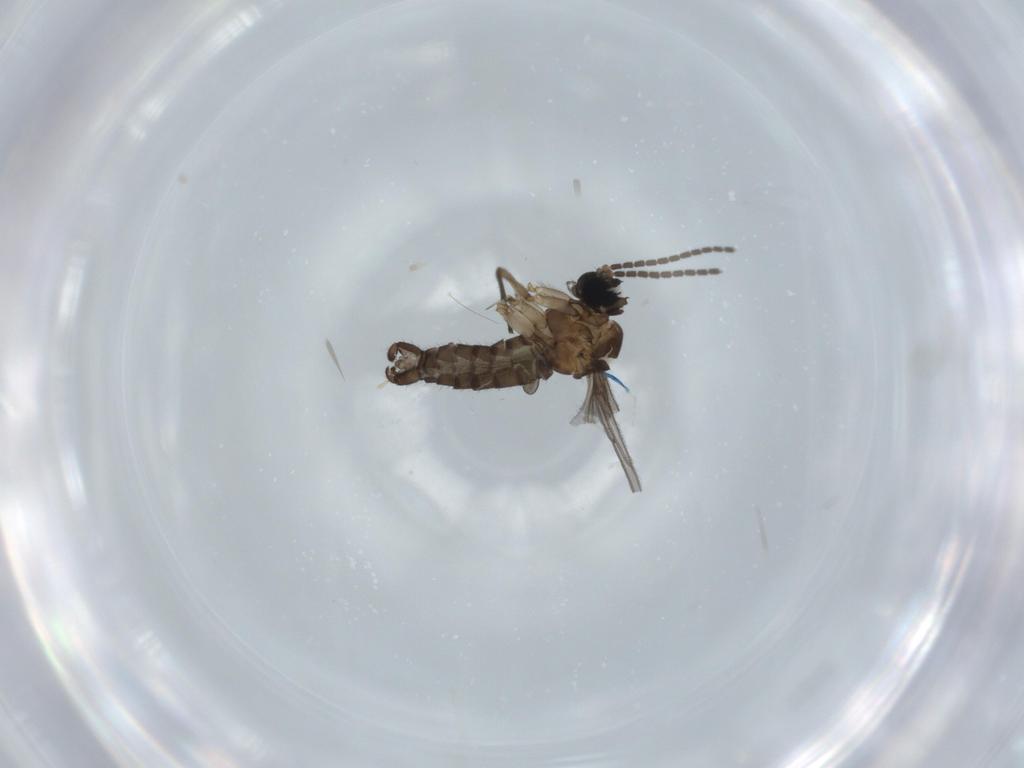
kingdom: Animalia
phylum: Arthropoda
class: Insecta
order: Diptera
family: Sciaridae
